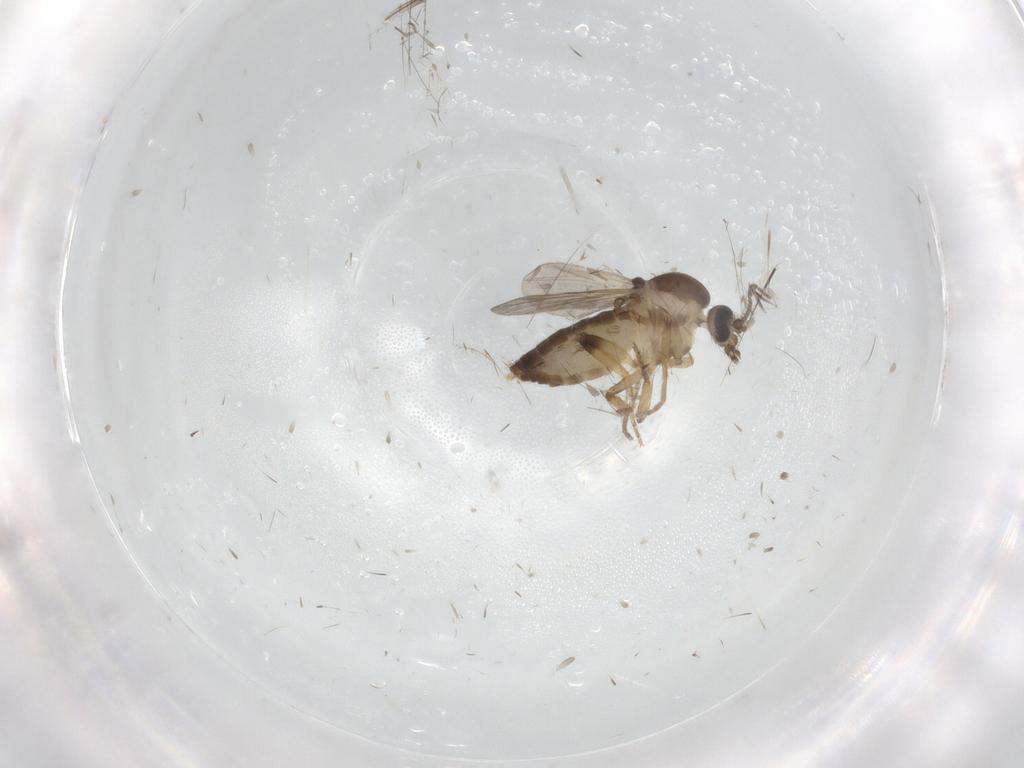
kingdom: Animalia
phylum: Arthropoda
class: Insecta
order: Diptera
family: Ceratopogonidae
